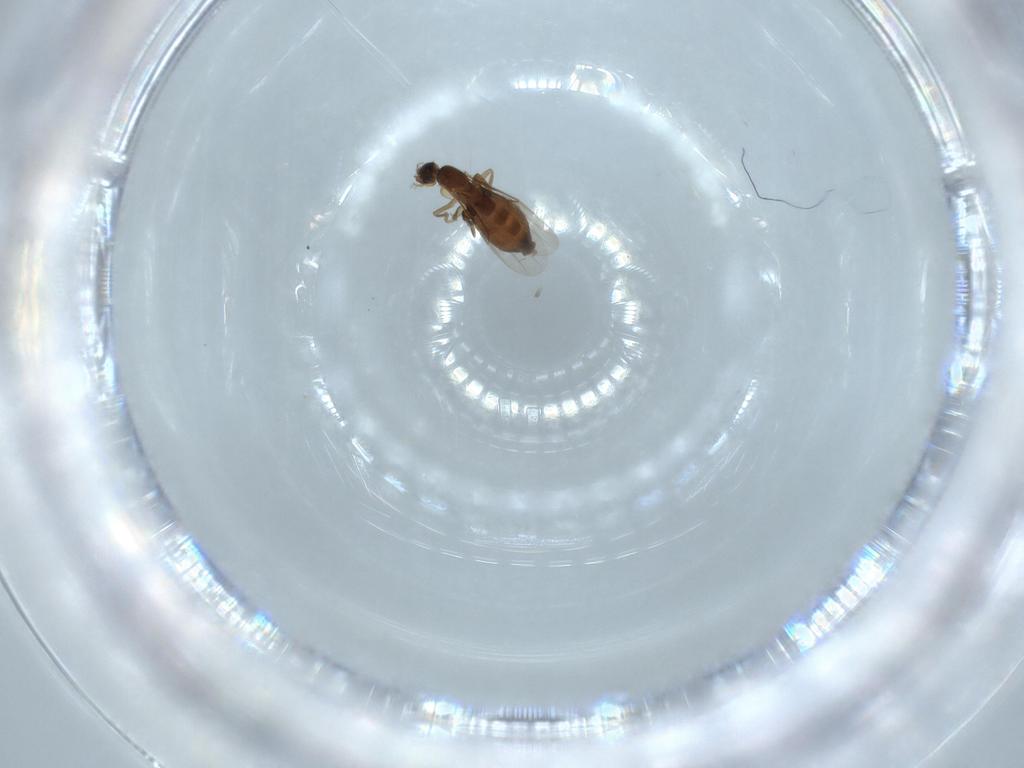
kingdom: Animalia
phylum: Arthropoda
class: Insecta
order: Diptera
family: Phoridae
